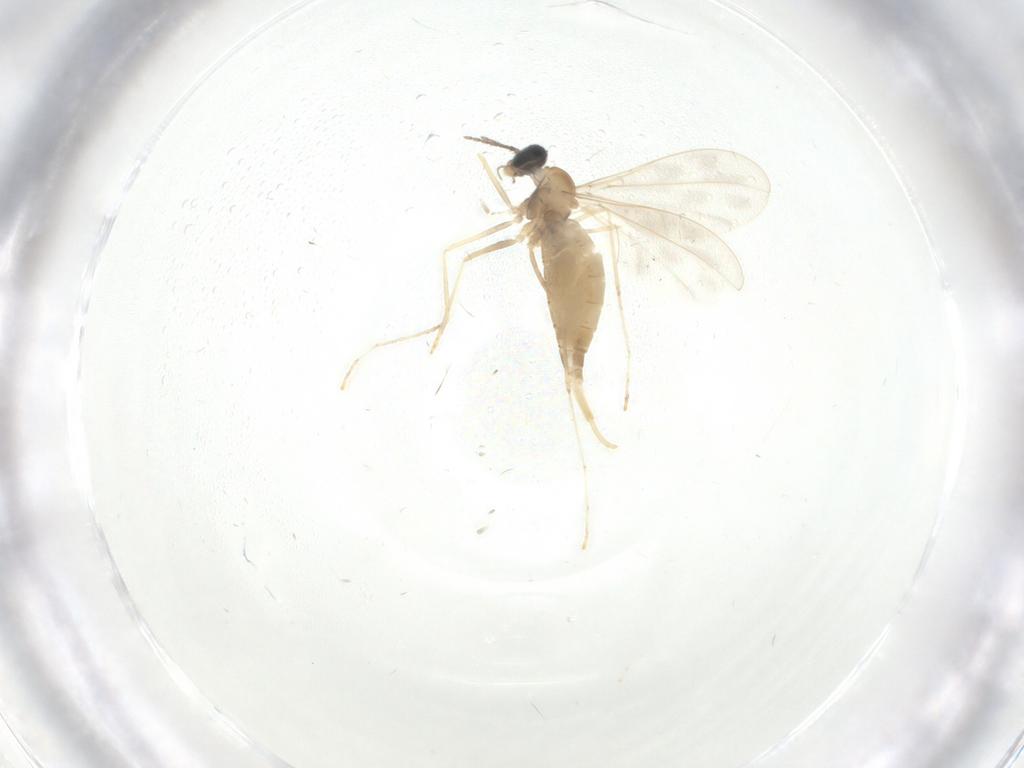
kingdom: Animalia
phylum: Arthropoda
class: Insecta
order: Diptera
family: Cecidomyiidae
